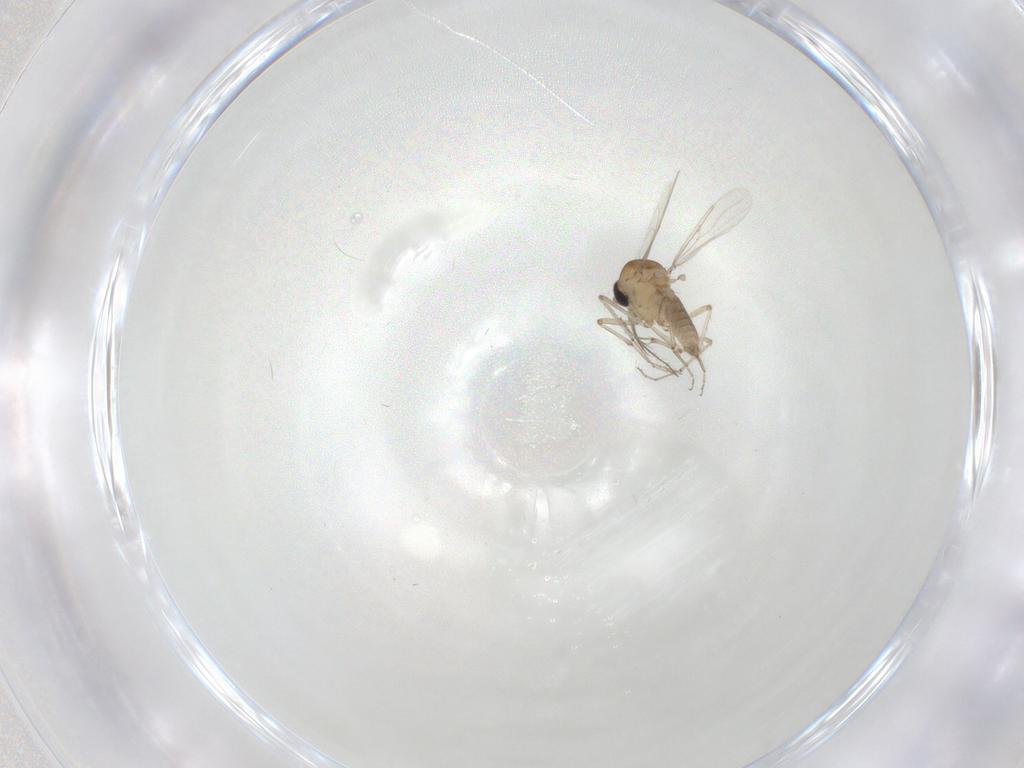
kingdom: Animalia
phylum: Arthropoda
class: Insecta
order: Diptera
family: Ceratopogonidae
